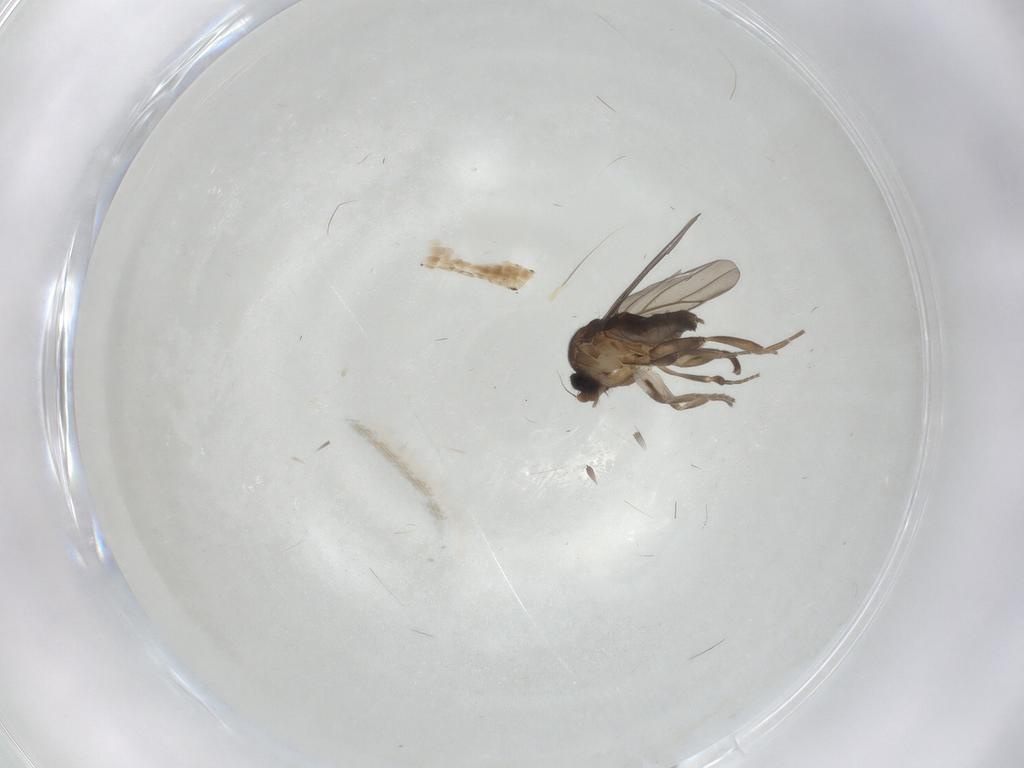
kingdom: Animalia
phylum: Arthropoda
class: Insecta
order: Diptera
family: Chironomidae
